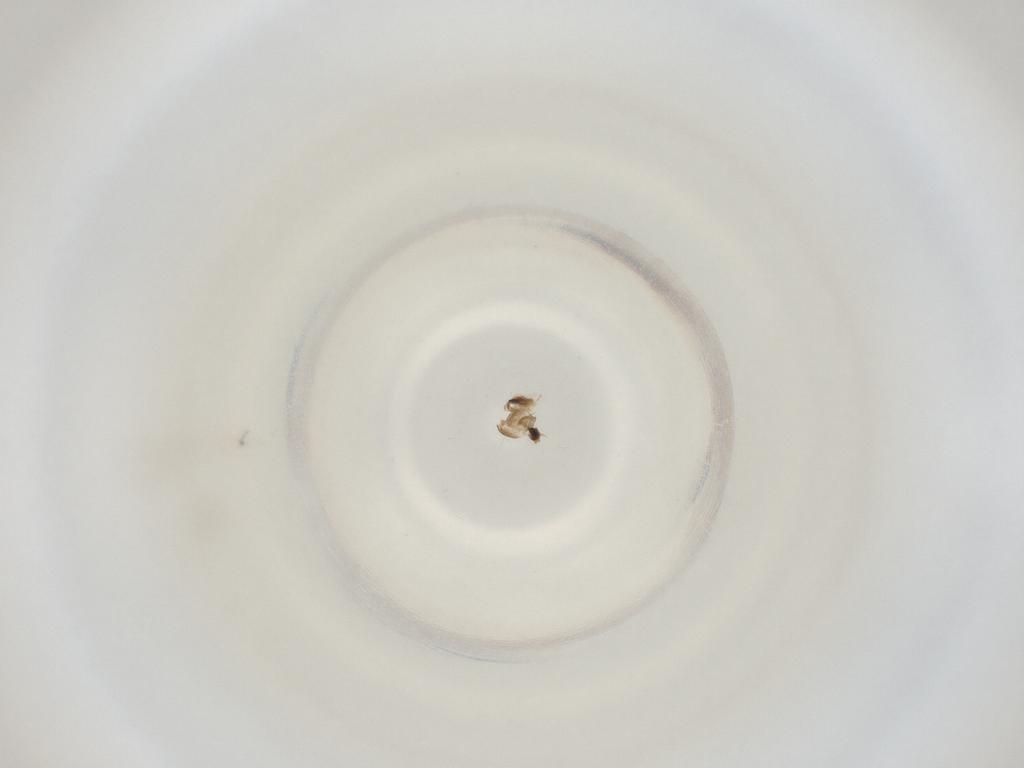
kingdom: Animalia
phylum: Arthropoda
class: Insecta
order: Diptera
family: Cecidomyiidae
